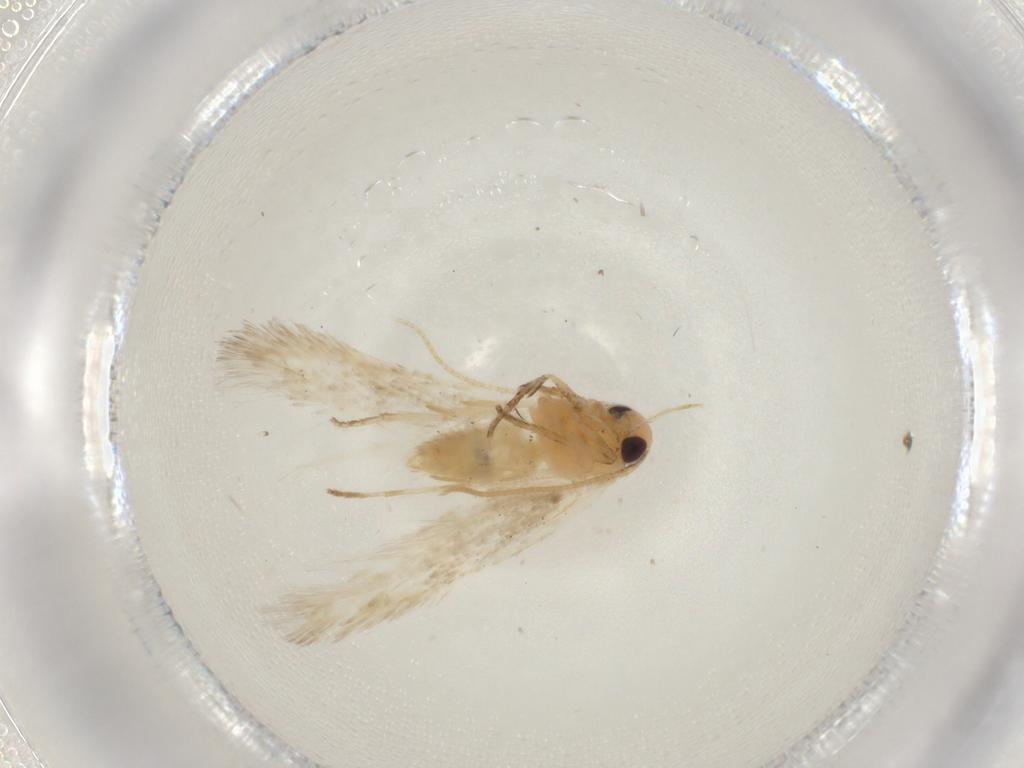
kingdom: Animalia
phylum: Arthropoda
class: Insecta
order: Lepidoptera
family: Cosmopterigidae
